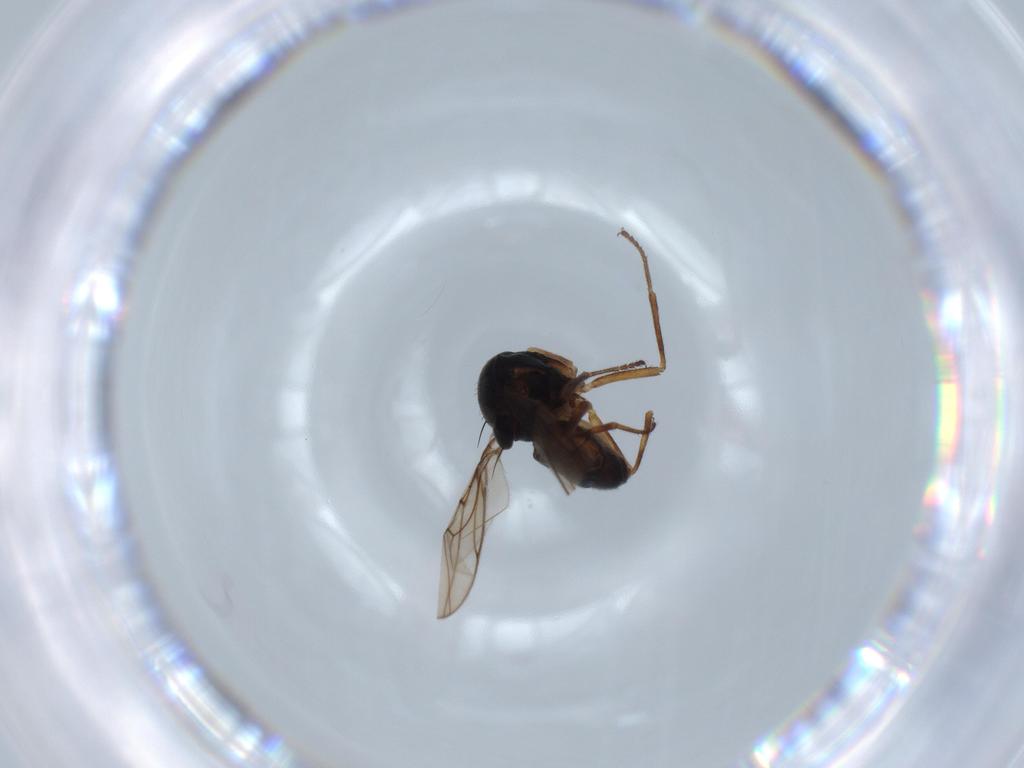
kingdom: Animalia
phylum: Arthropoda
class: Insecta
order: Diptera
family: Ephydridae
